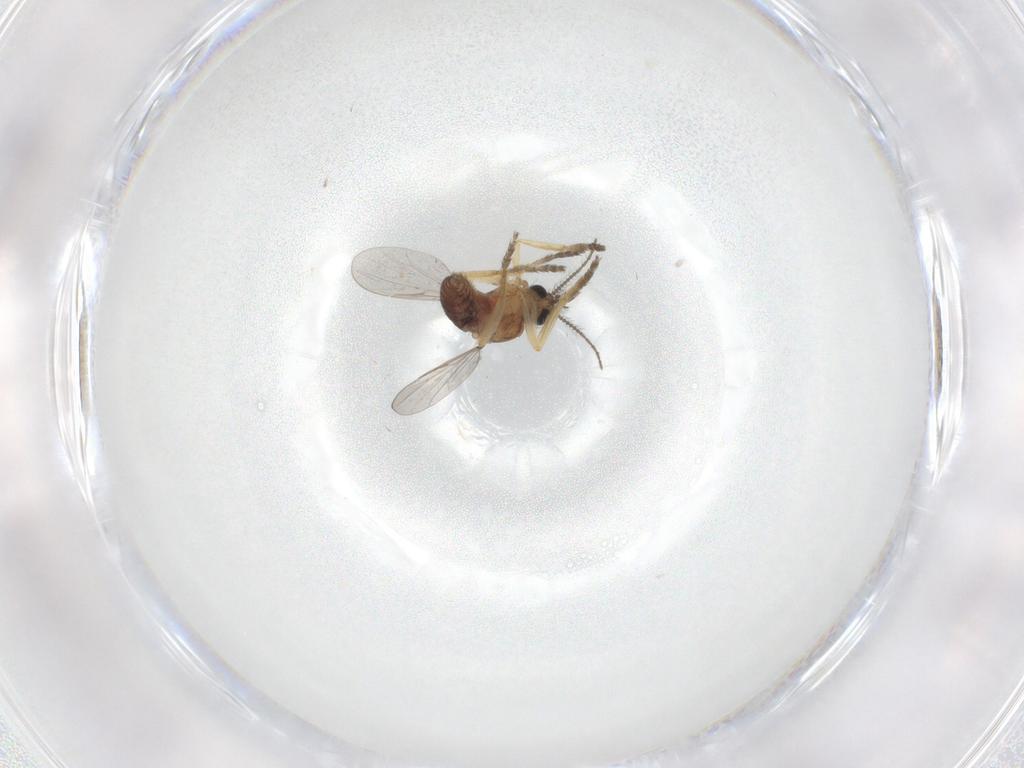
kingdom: Animalia
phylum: Arthropoda
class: Insecta
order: Diptera
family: Ceratopogonidae
